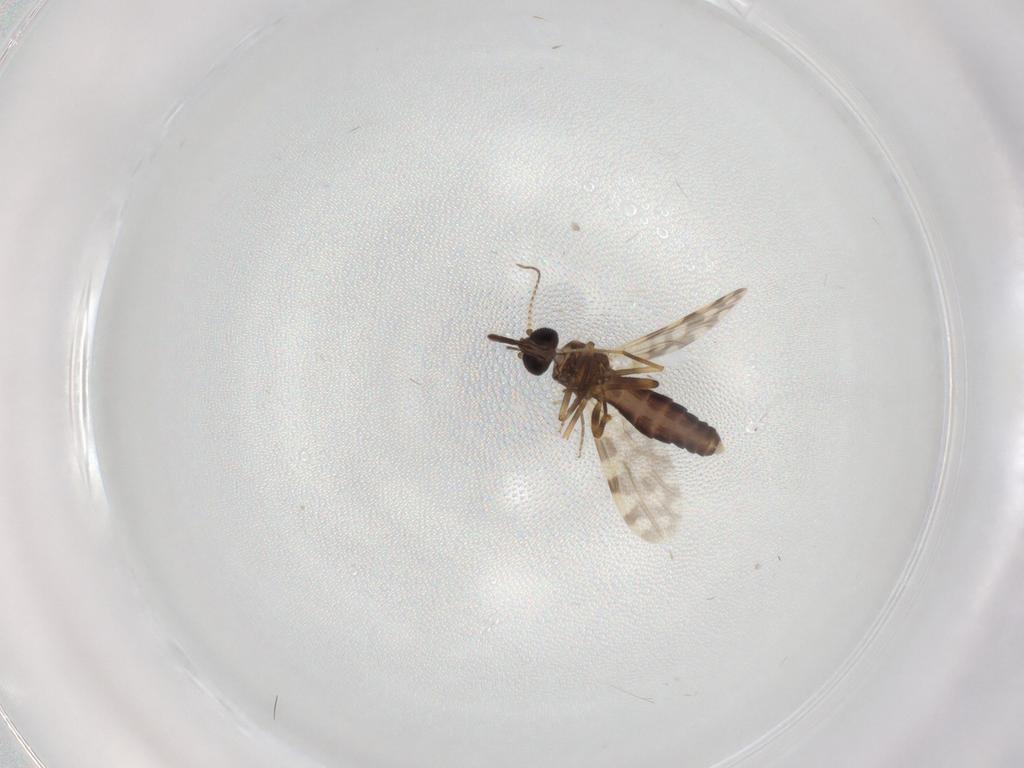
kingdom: Animalia
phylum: Arthropoda
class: Insecta
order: Diptera
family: Ceratopogonidae
